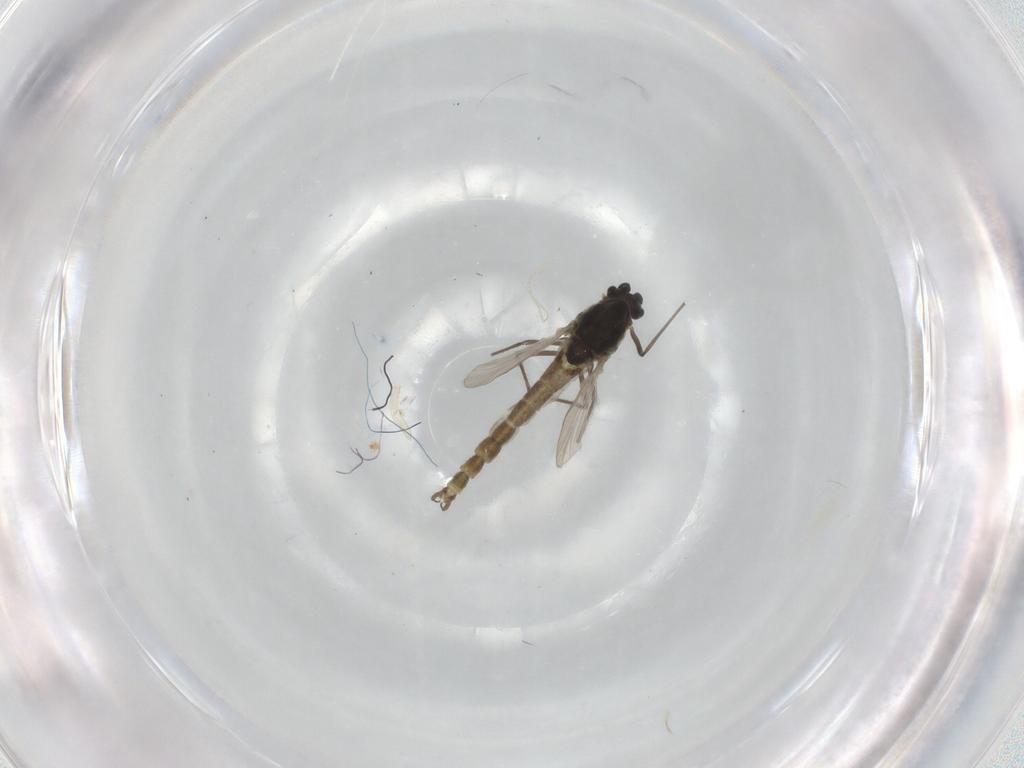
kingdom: Animalia
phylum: Arthropoda
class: Insecta
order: Diptera
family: Chironomidae
